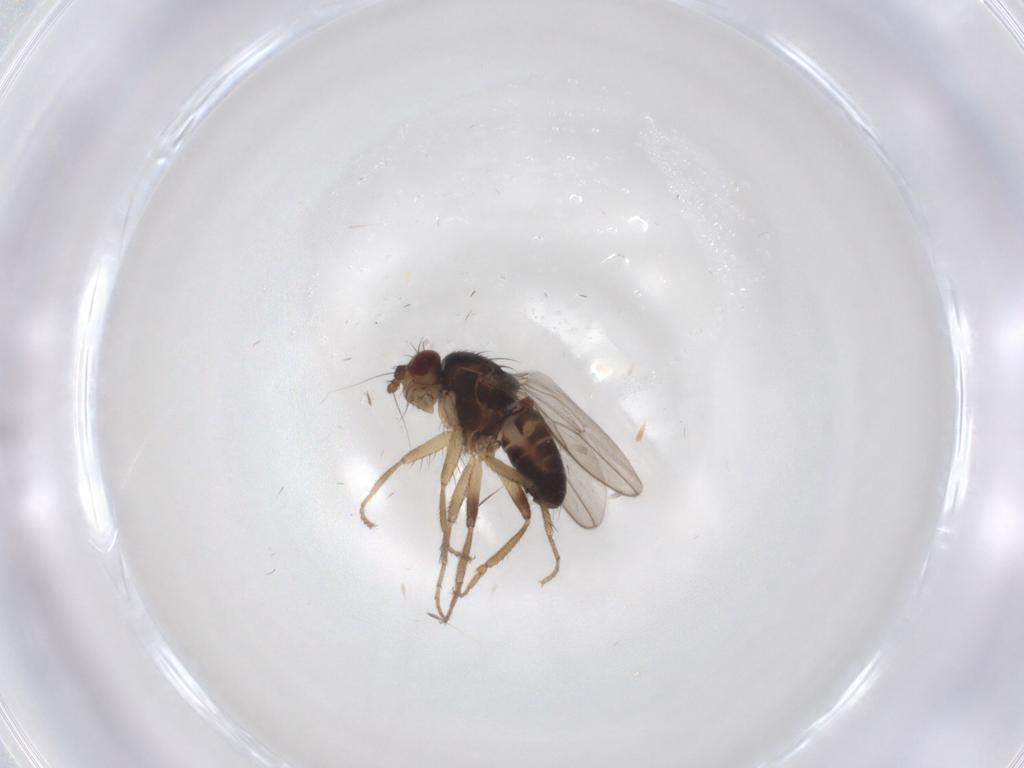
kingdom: Animalia
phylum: Arthropoda
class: Insecta
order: Diptera
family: Sphaeroceridae
